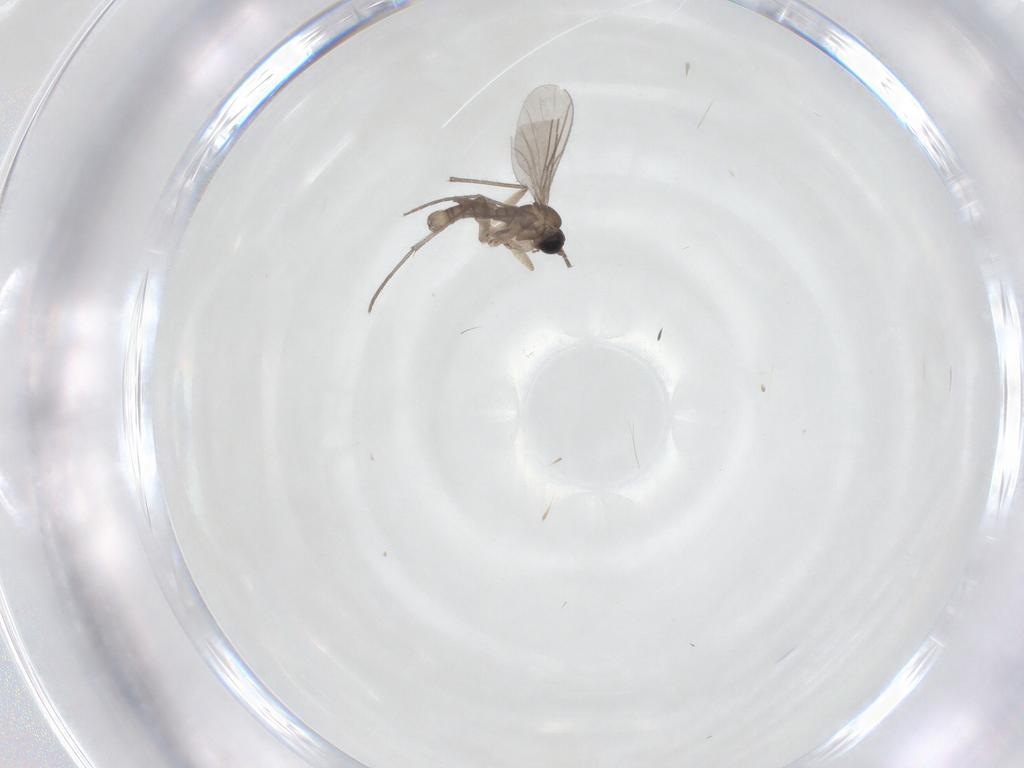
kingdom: Animalia
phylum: Arthropoda
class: Insecta
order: Diptera
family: Sciaridae
